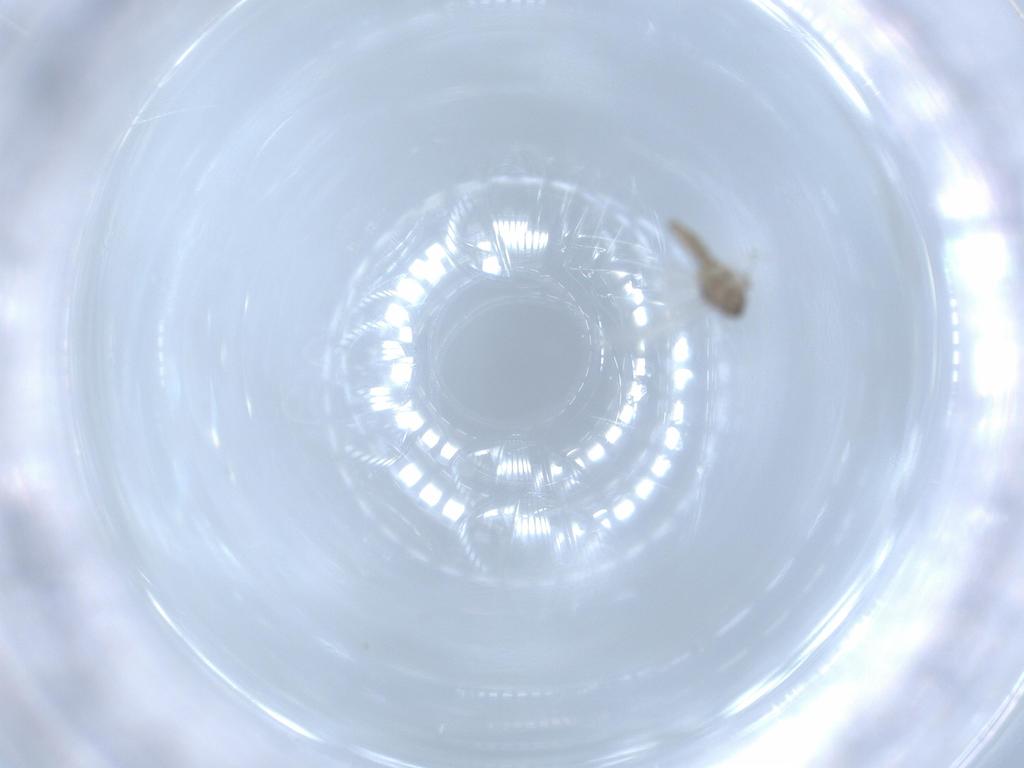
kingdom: Animalia
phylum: Arthropoda
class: Insecta
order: Diptera
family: Cecidomyiidae
